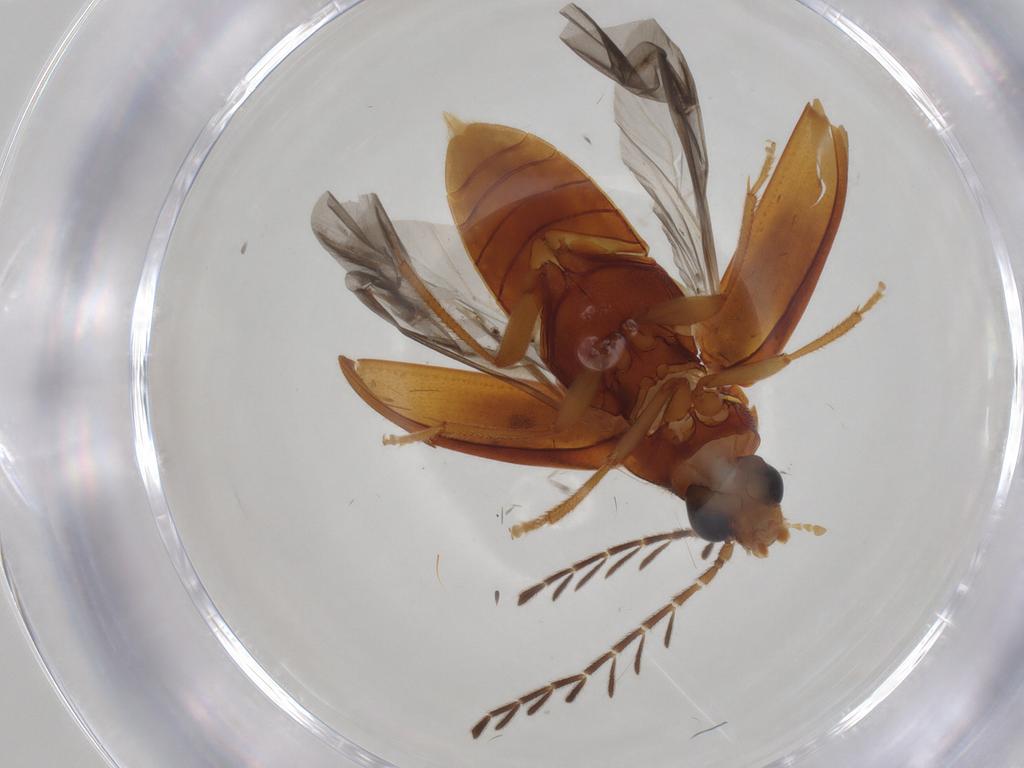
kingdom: Animalia
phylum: Arthropoda
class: Insecta
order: Coleoptera
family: Ptilodactylidae
